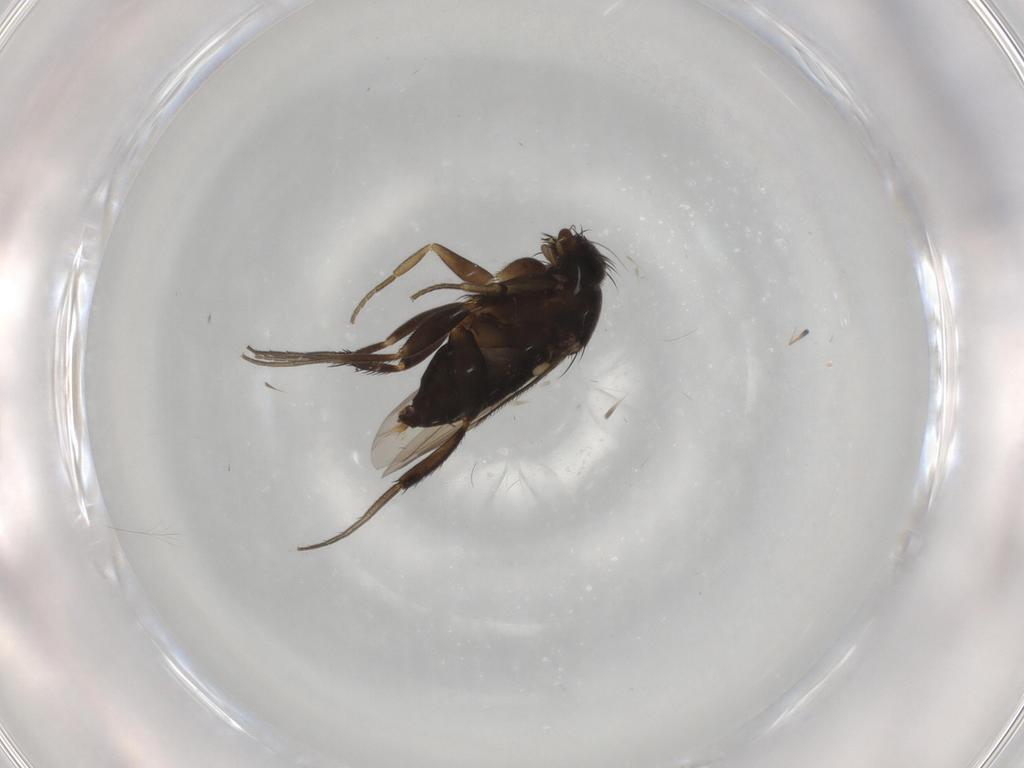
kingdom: Animalia
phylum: Arthropoda
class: Insecta
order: Diptera
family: Phoridae
